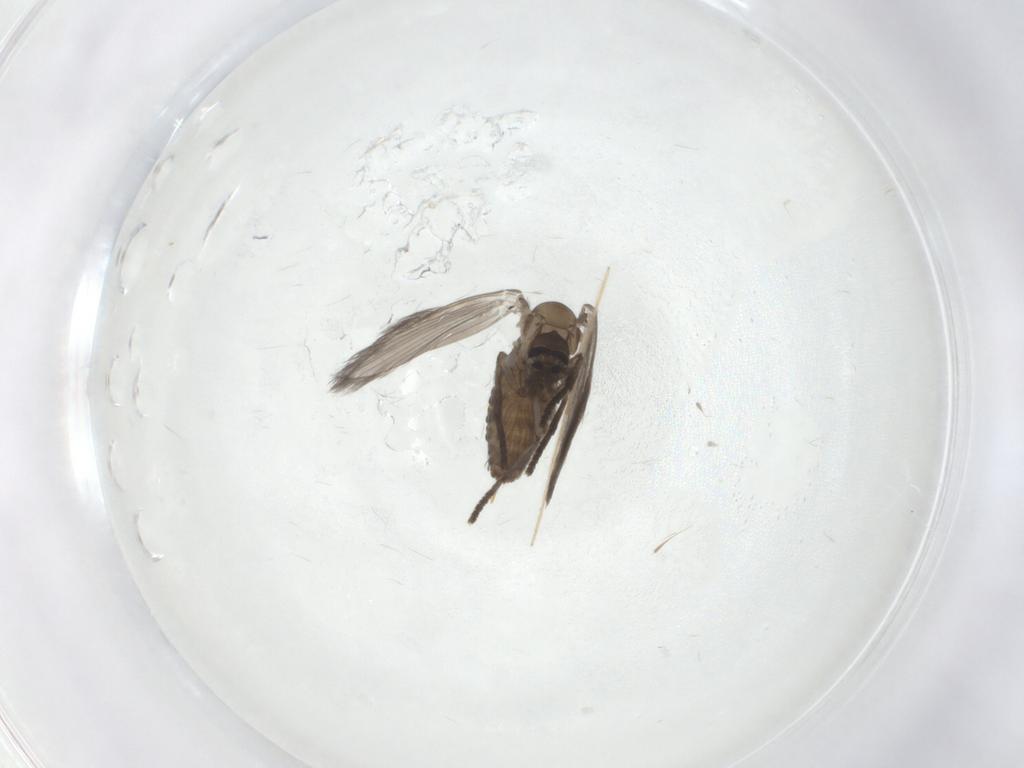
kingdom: Animalia
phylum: Arthropoda
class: Insecta
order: Diptera
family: Chironomidae
